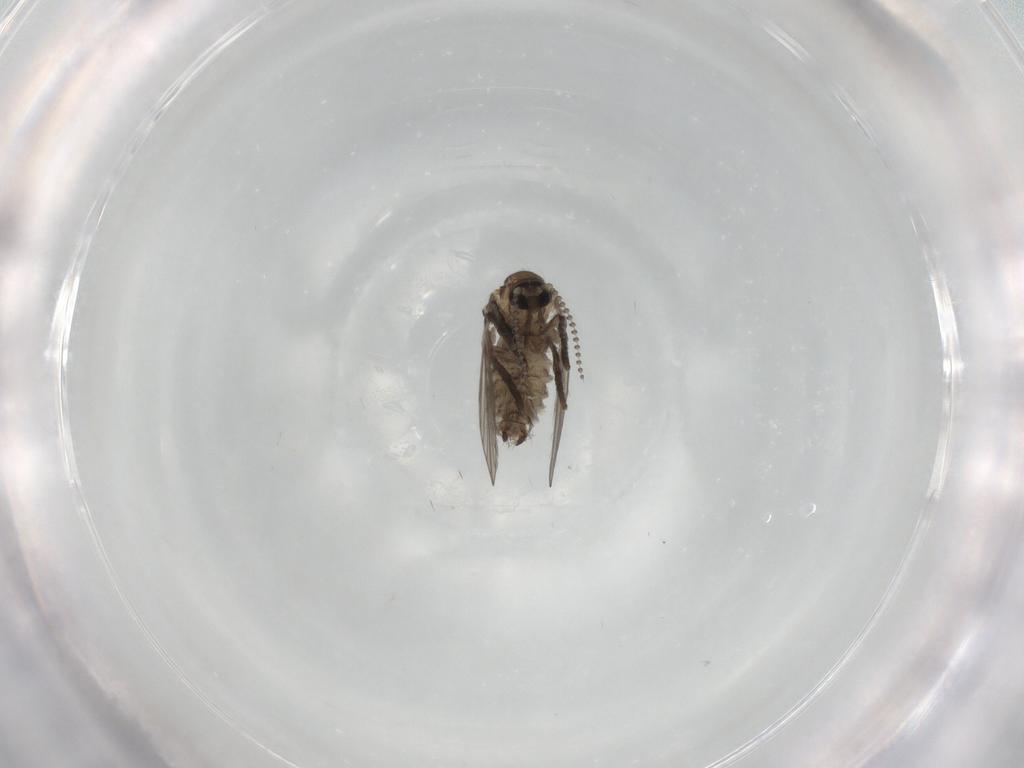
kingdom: Animalia
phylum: Arthropoda
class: Insecta
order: Diptera
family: Psychodidae
